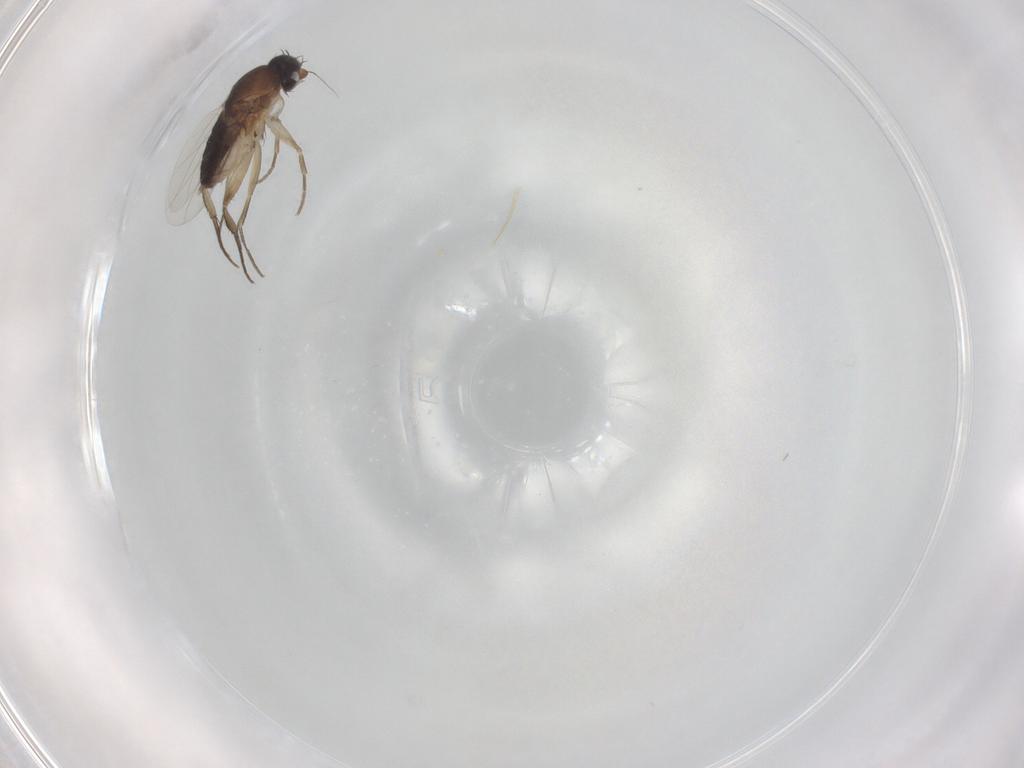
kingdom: Animalia
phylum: Arthropoda
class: Insecta
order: Diptera
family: Phoridae
